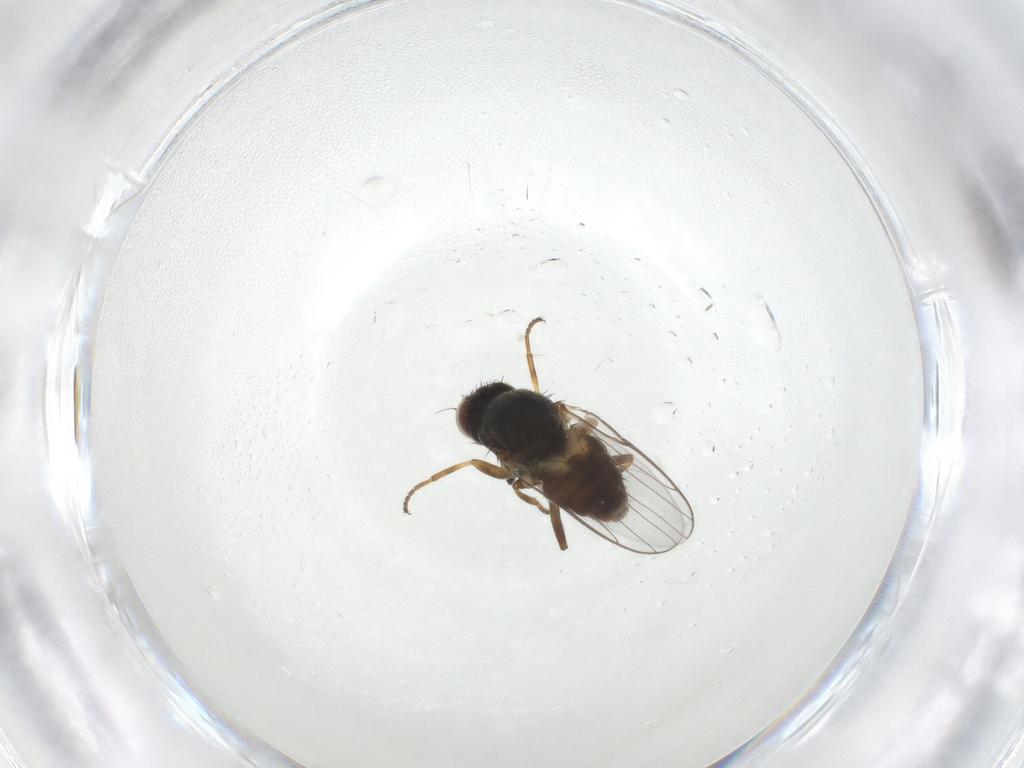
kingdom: Animalia
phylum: Arthropoda
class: Insecta
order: Diptera
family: Chloropidae
